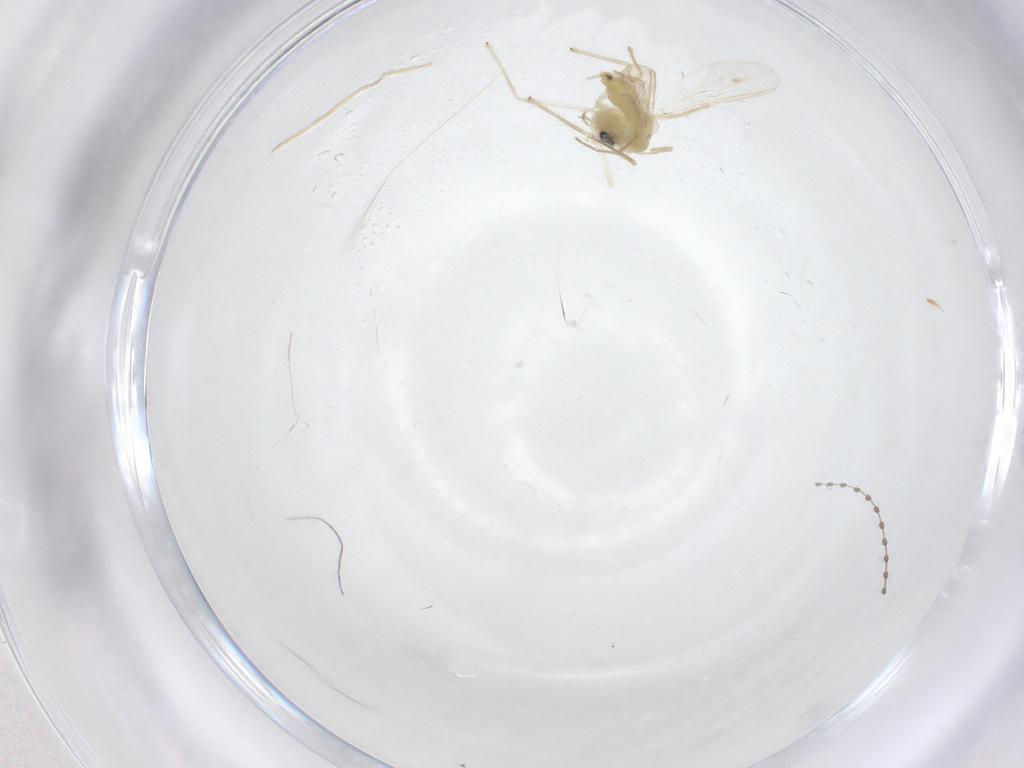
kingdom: Animalia
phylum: Arthropoda
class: Insecta
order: Diptera
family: Chironomidae
